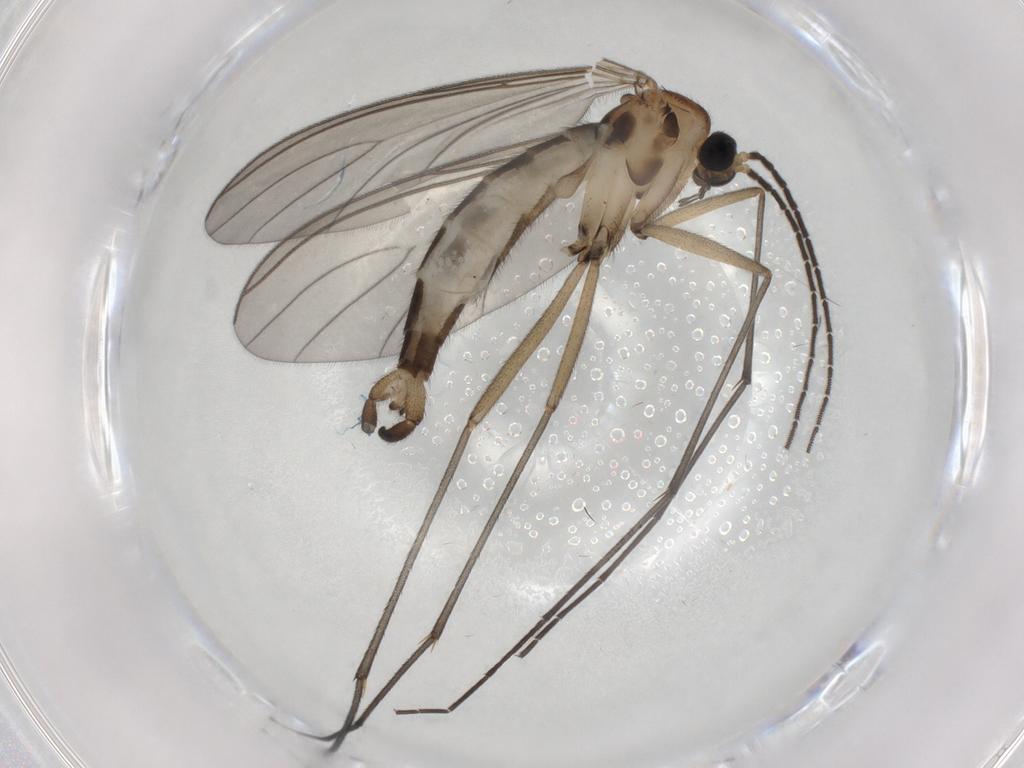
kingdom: Animalia
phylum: Arthropoda
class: Insecta
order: Diptera
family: Sciaridae
